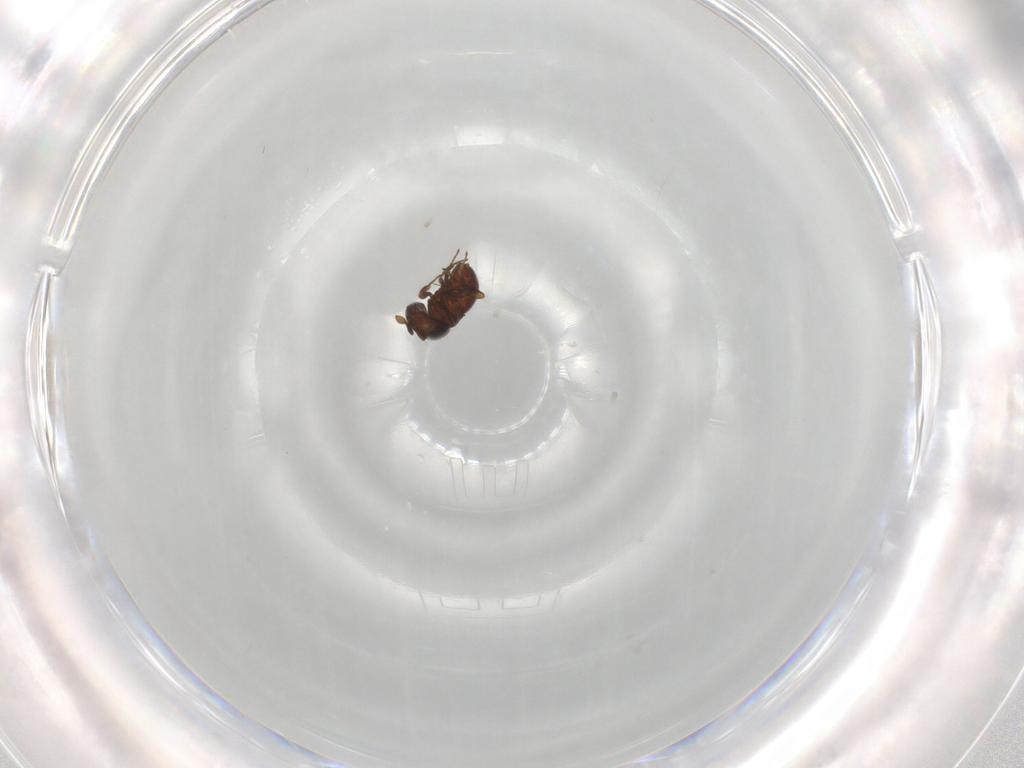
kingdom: Animalia
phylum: Arthropoda
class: Insecta
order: Hymenoptera
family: Scelionidae
